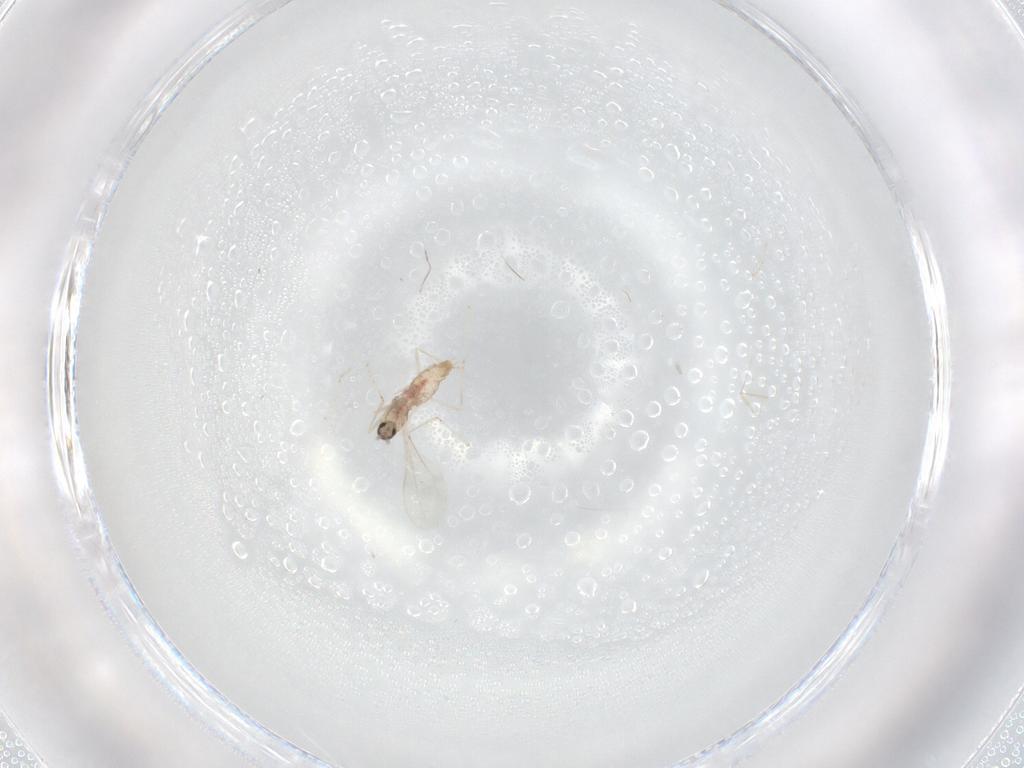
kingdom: Animalia
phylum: Arthropoda
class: Insecta
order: Diptera
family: Cecidomyiidae
